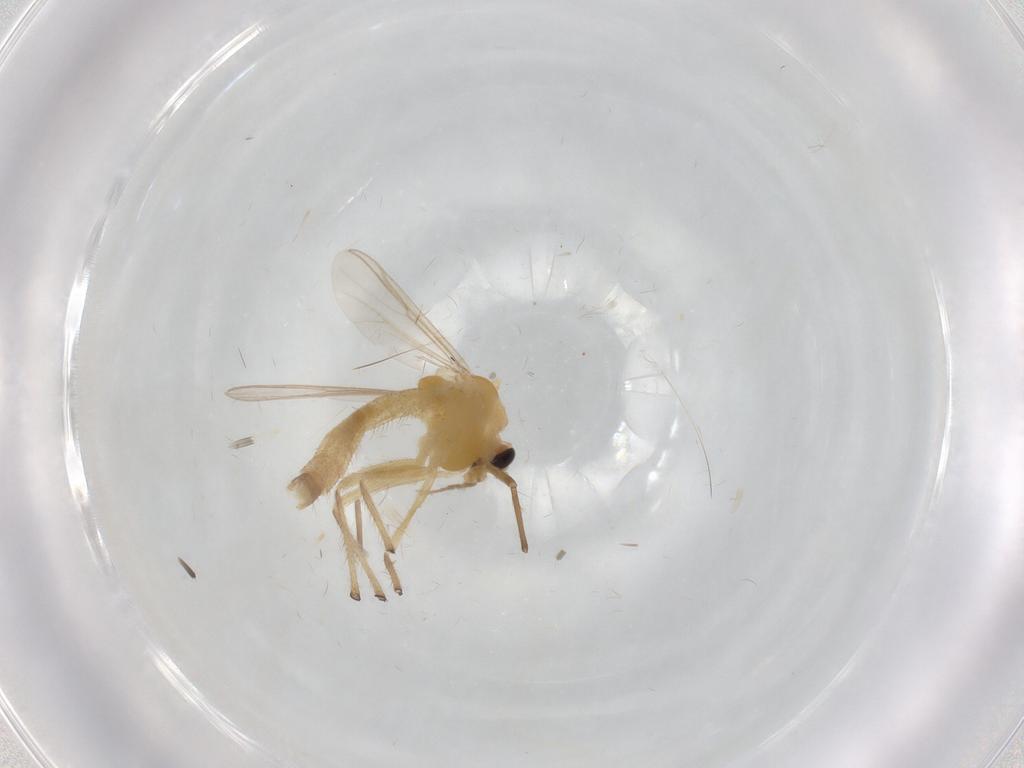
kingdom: Animalia
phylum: Arthropoda
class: Insecta
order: Diptera
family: Chironomidae
